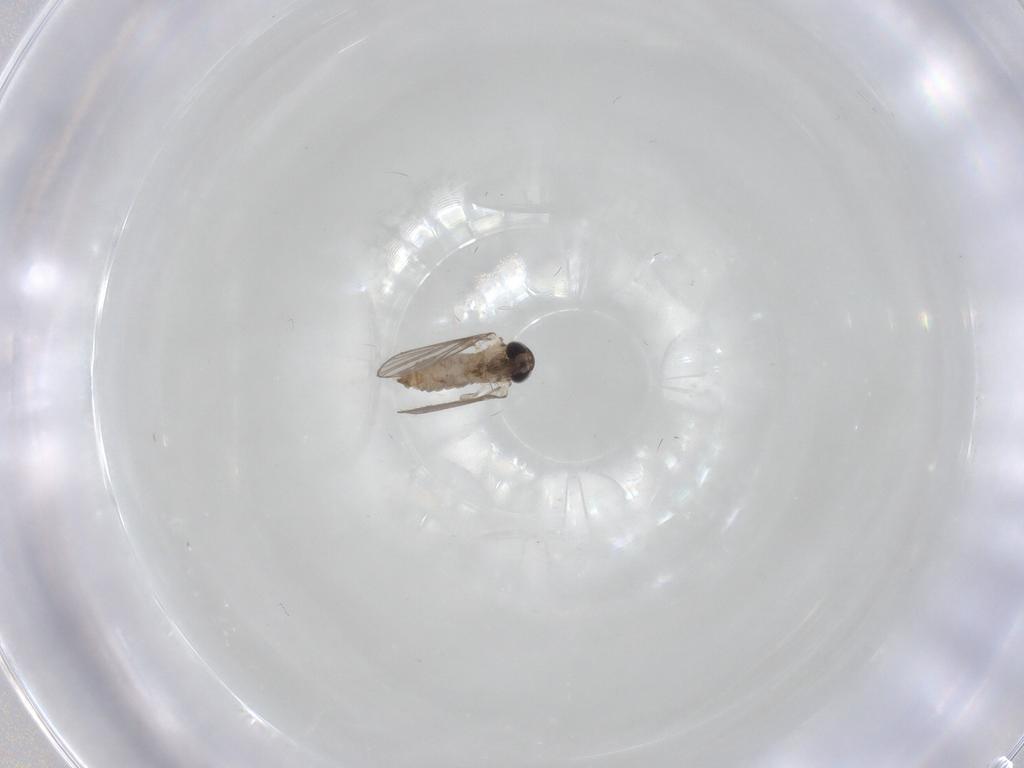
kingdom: Animalia
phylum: Arthropoda
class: Insecta
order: Diptera
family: Psychodidae
